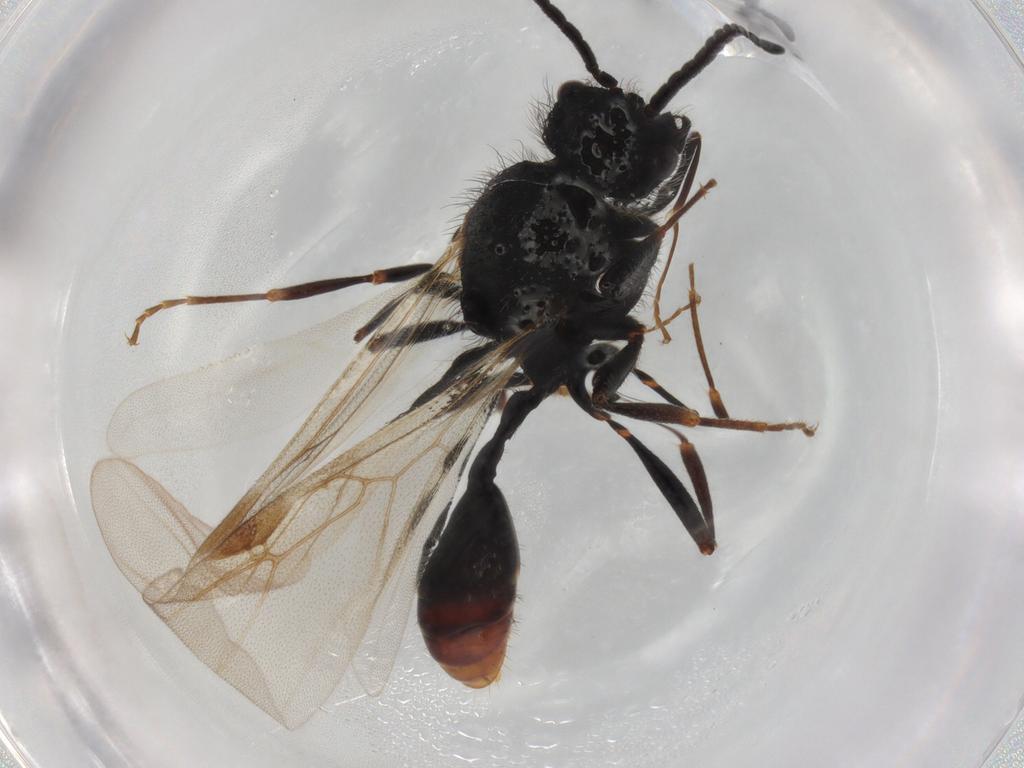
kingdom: Animalia
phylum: Arthropoda
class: Insecta
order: Hymenoptera
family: Formicidae
